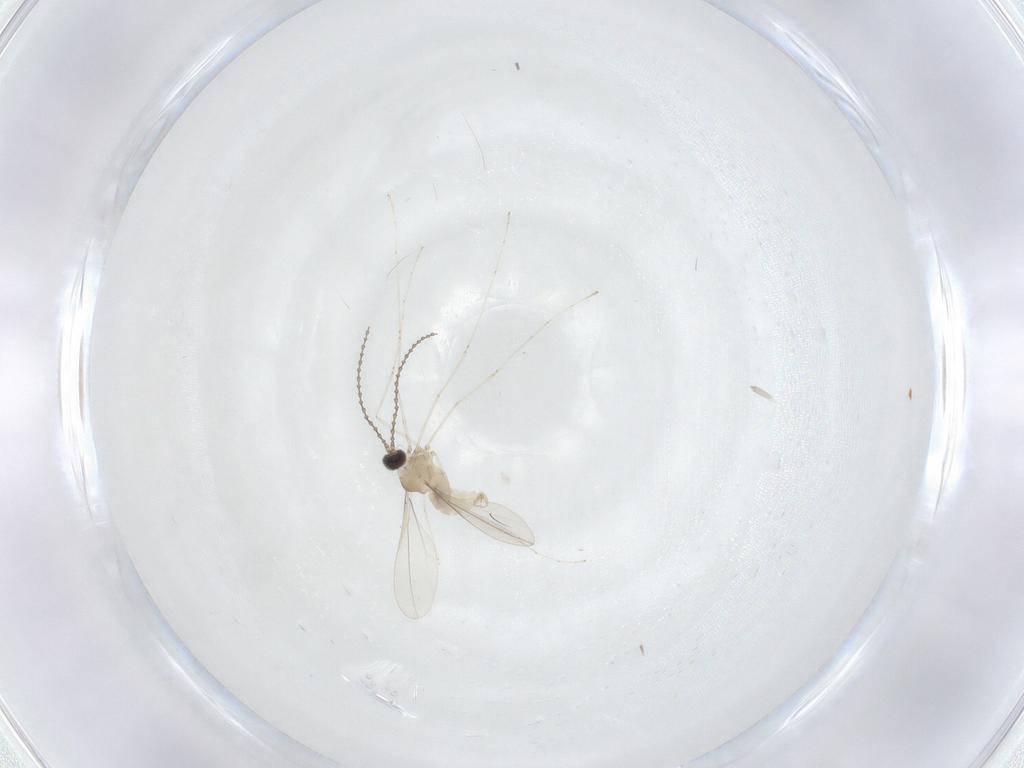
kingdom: Animalia
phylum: Arthropoda
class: Insecta
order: Diptera
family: Cecidomyiidae
